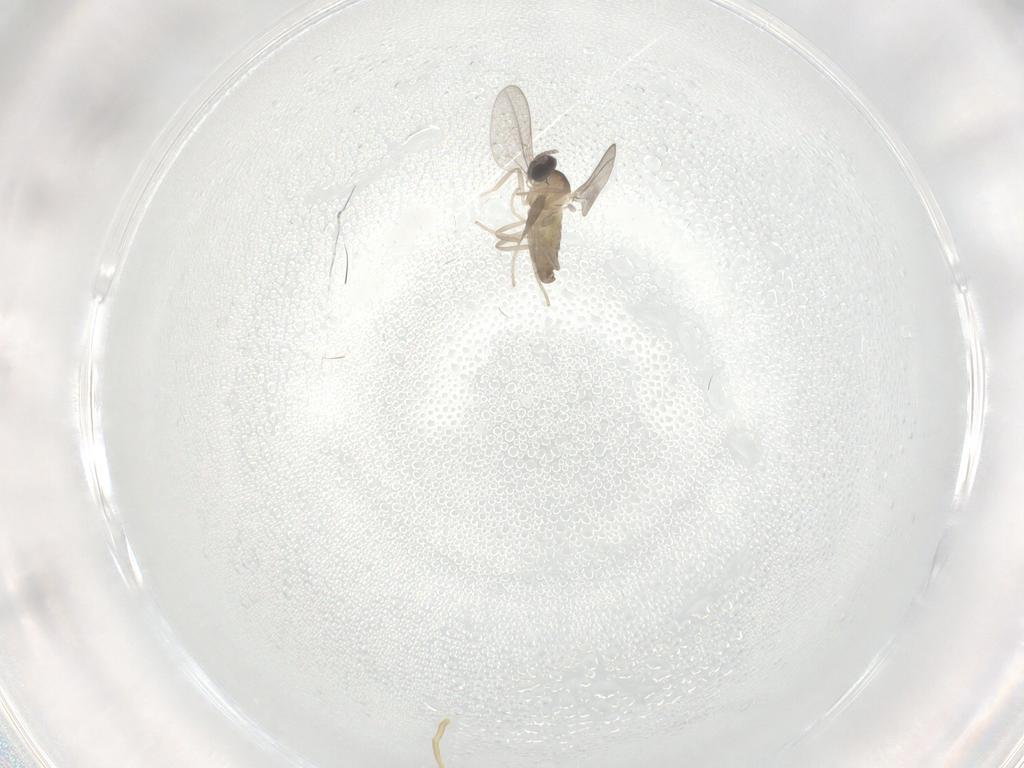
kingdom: Animalia
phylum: Arthropoda
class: Insecta
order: Diptera
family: Cecidomyiidae
